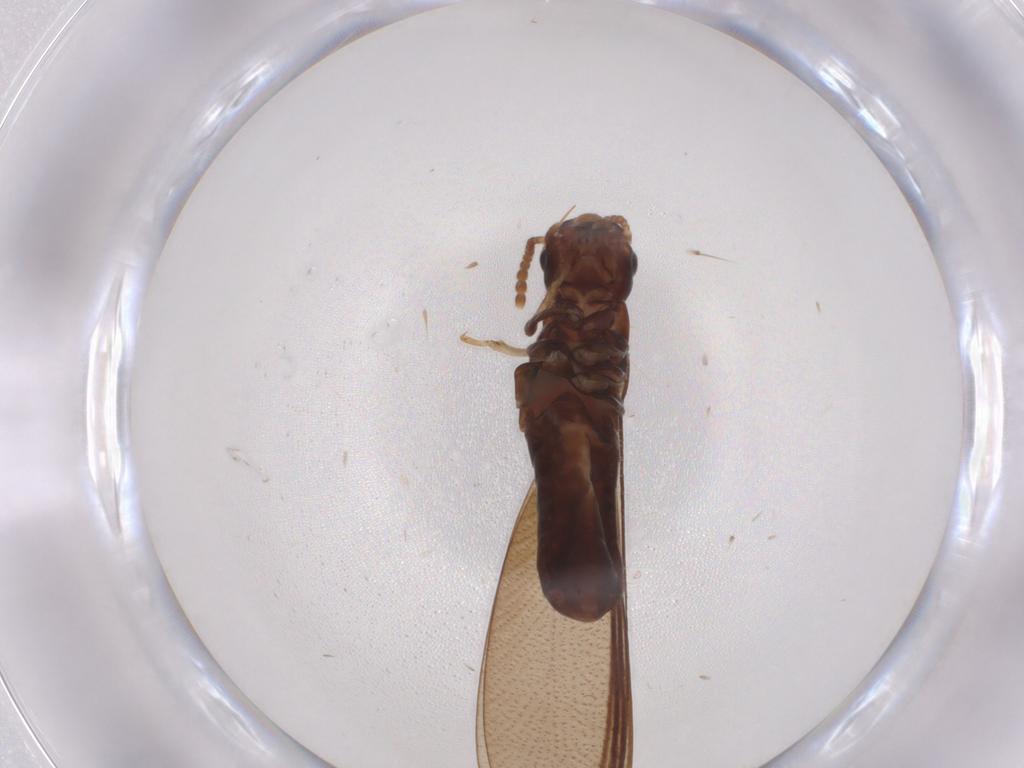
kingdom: Animalia
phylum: Arthropoda
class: Insecta
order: Blattodea
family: Kalotermitidae
